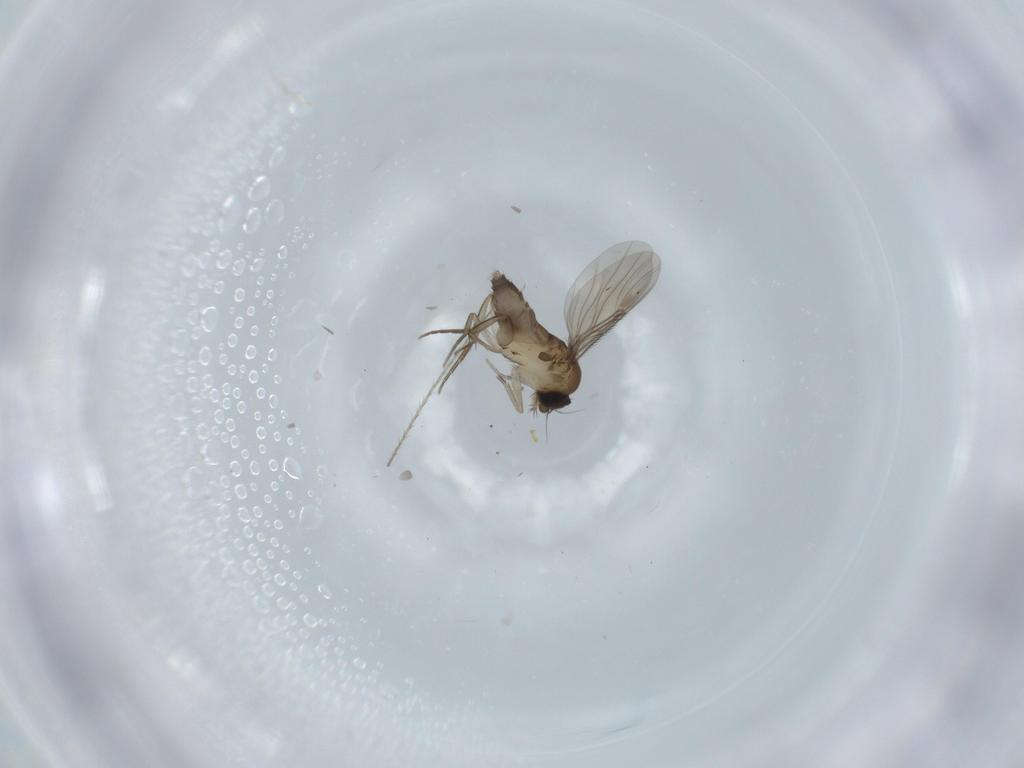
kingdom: Animalia
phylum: Arthropoda
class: Insecta
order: Diptera
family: Phoridae
